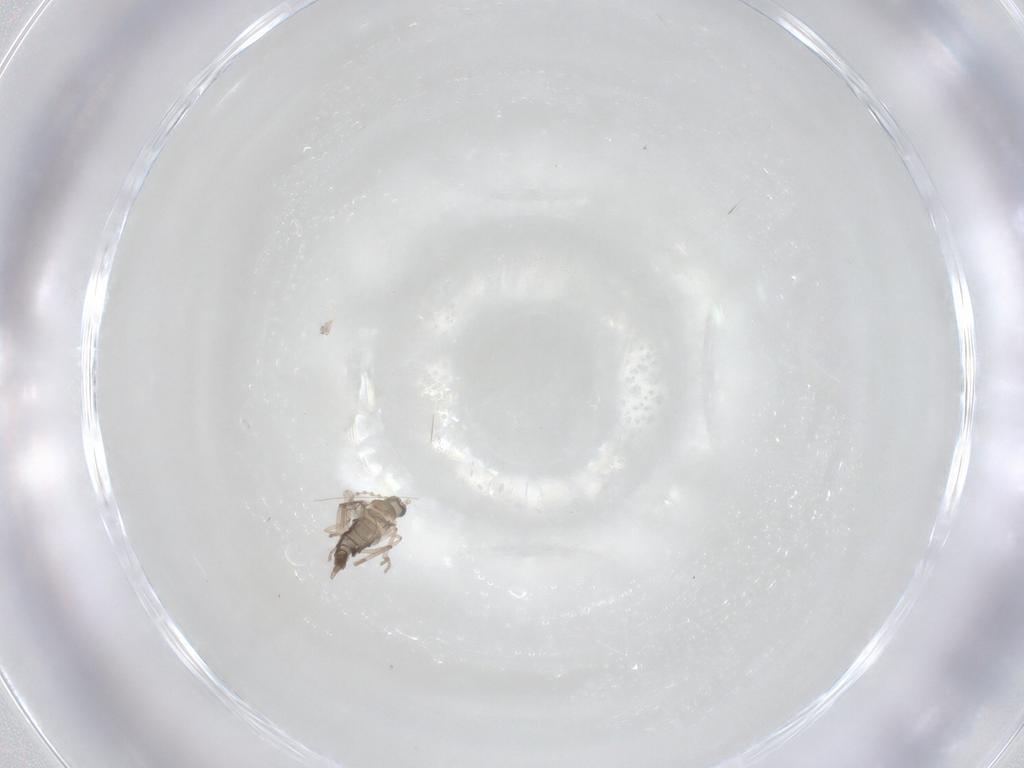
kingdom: Animalia
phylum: Arthropoda
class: Insecta
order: Diptera
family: Cecidomyiidae
